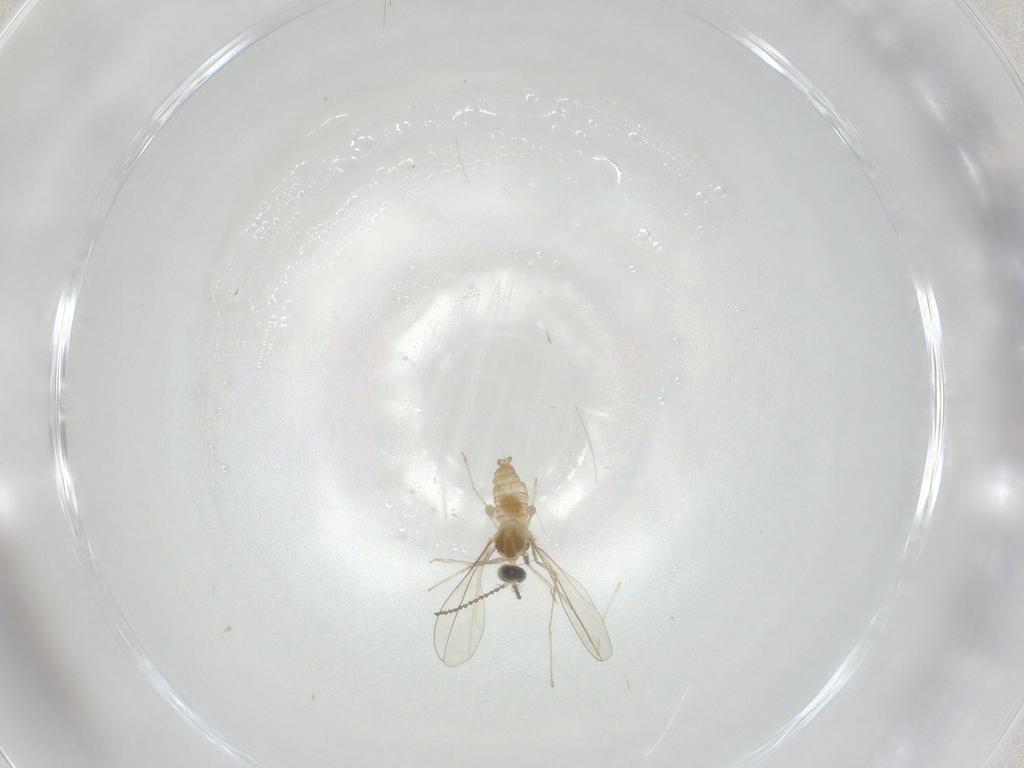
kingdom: Animalia
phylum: Arthropoda
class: Insecta
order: Diptera
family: Cecidomyiidae
